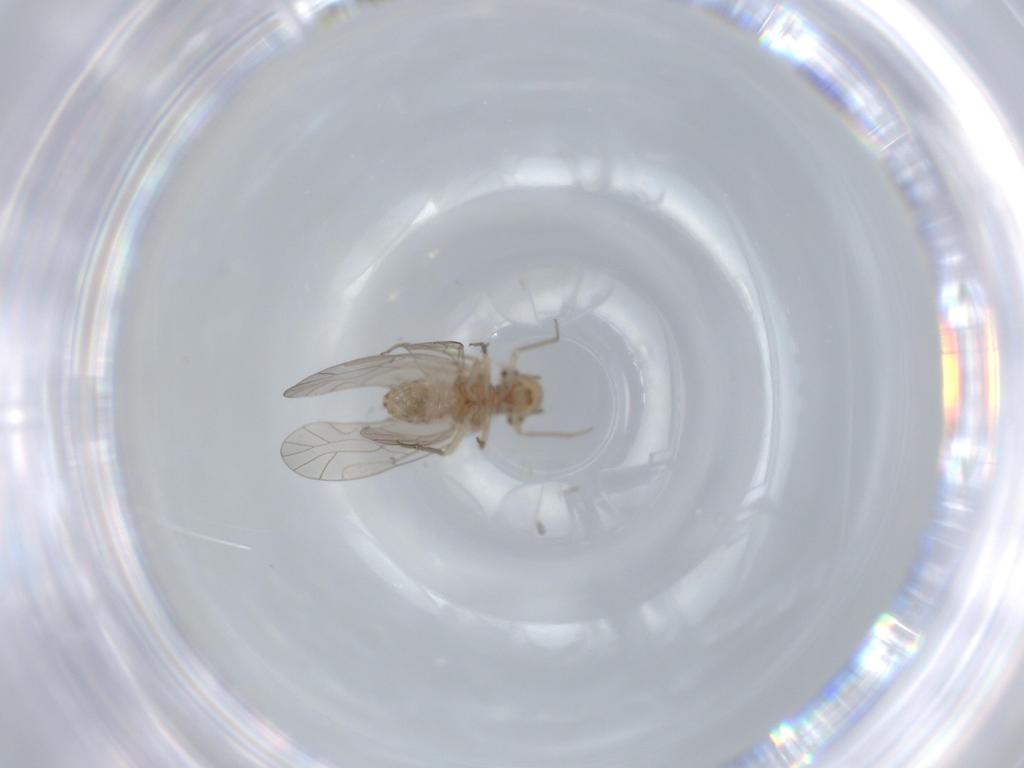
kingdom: Animalia
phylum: Arthropoda
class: Insecta
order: Psocodea
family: Lachesillidae
